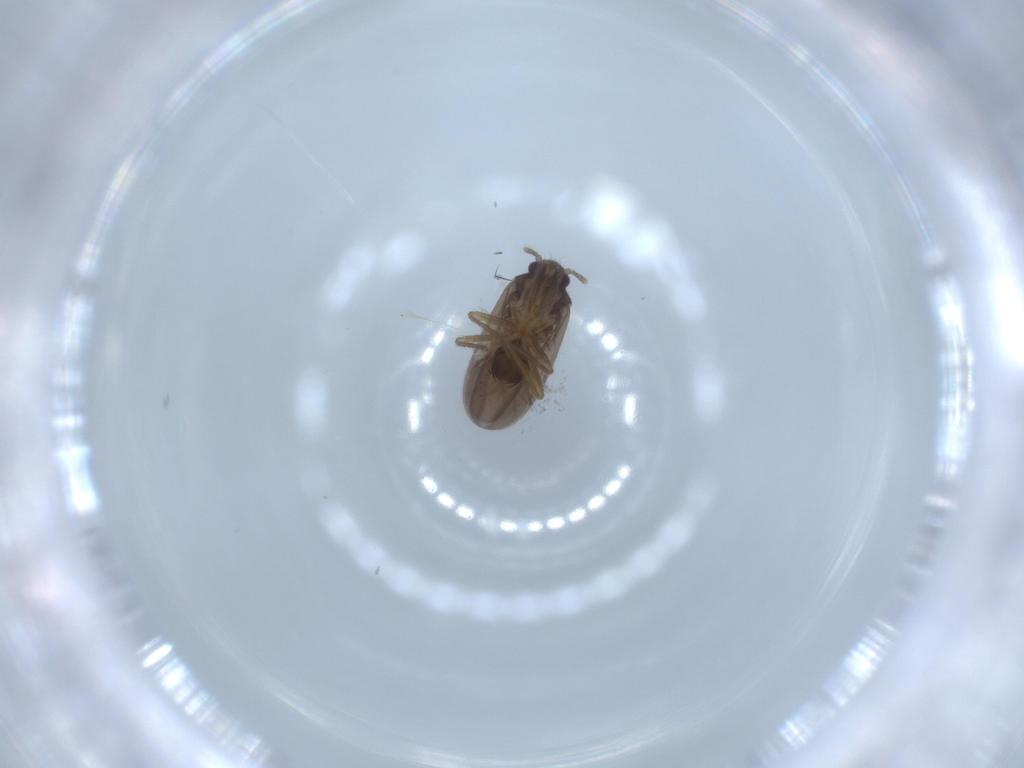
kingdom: Animalia
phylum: Arthropoda
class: Insecta
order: Hemiptera
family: Ceratocombidae
